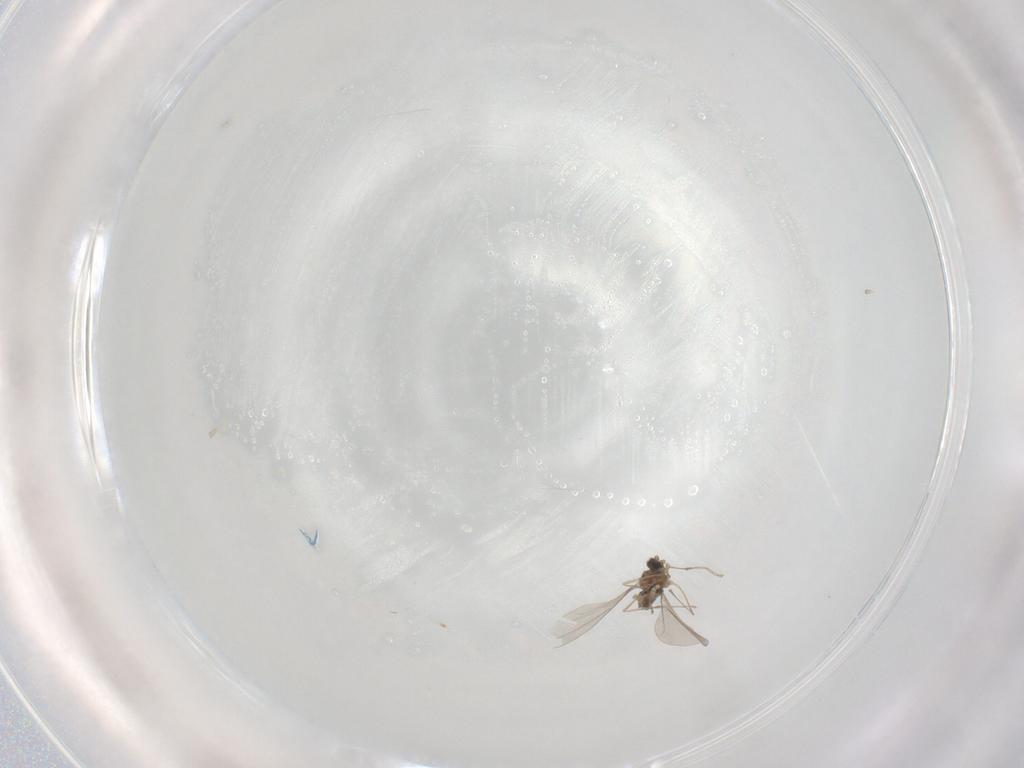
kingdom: Animalia
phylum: Arthropoda
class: Insecta
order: Diptera
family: Cecidomyiidae
